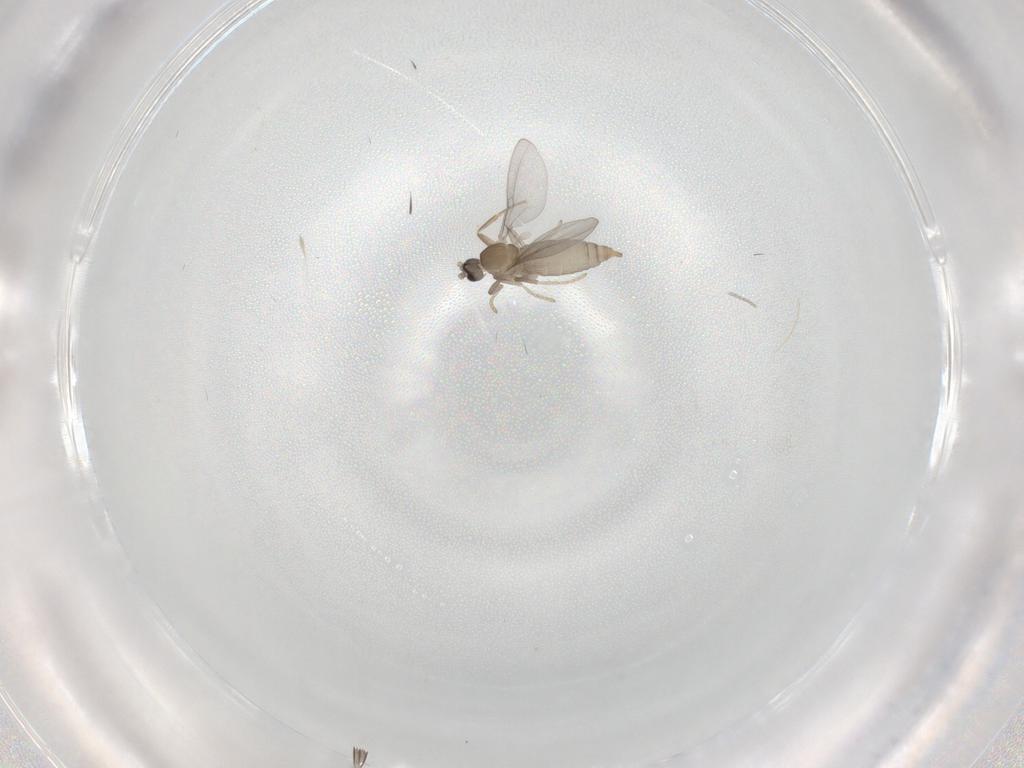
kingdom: Animalia
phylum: Arthropoda
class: Insecta
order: Diptera
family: Cecidomyiidae
